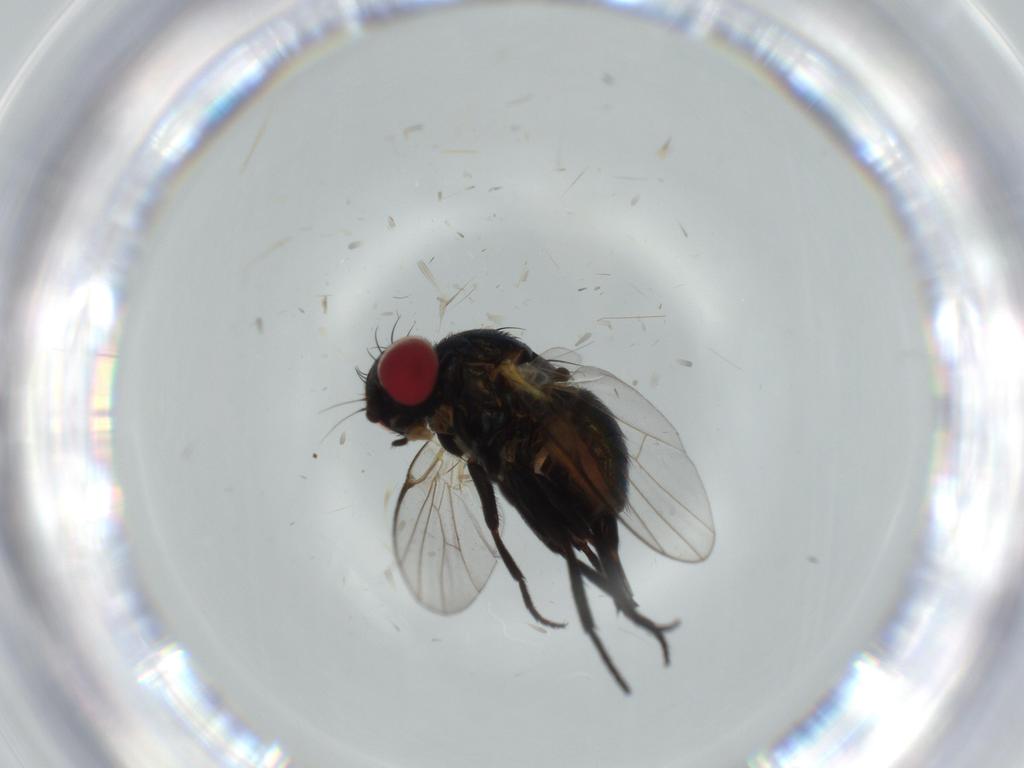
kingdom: Animalia
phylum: Arthropoda
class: Insecta
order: Diptera
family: Agromyzidae
